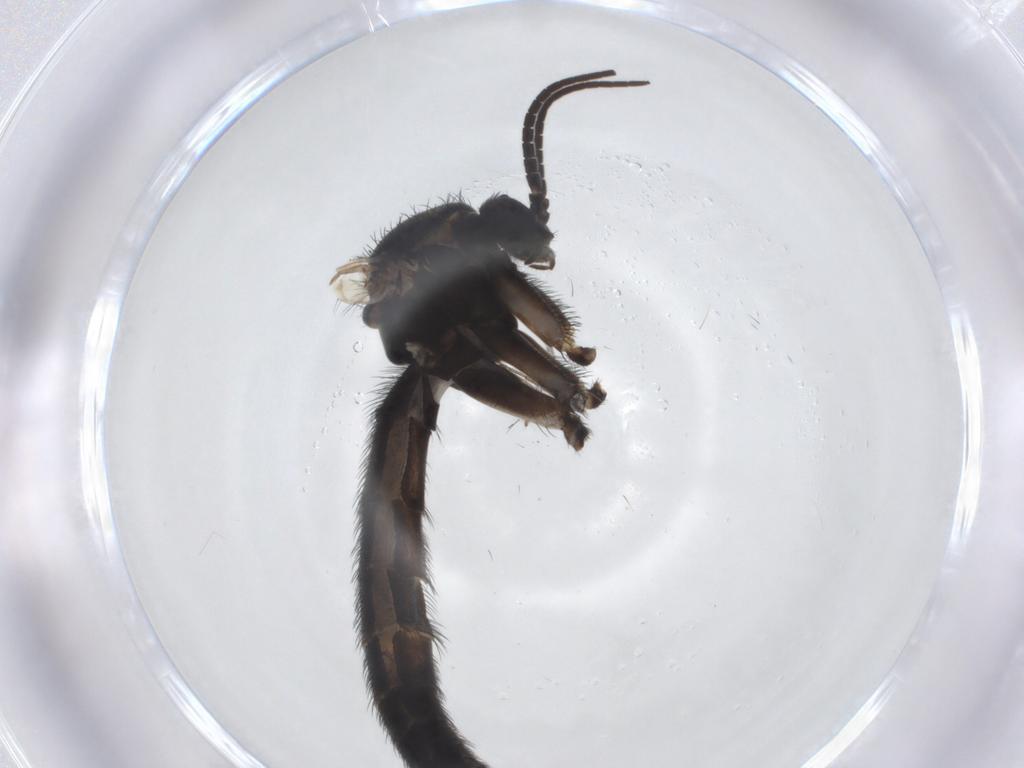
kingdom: Animalia
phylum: Arthropoda
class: Insecta
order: Diptera
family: Sciaridae
